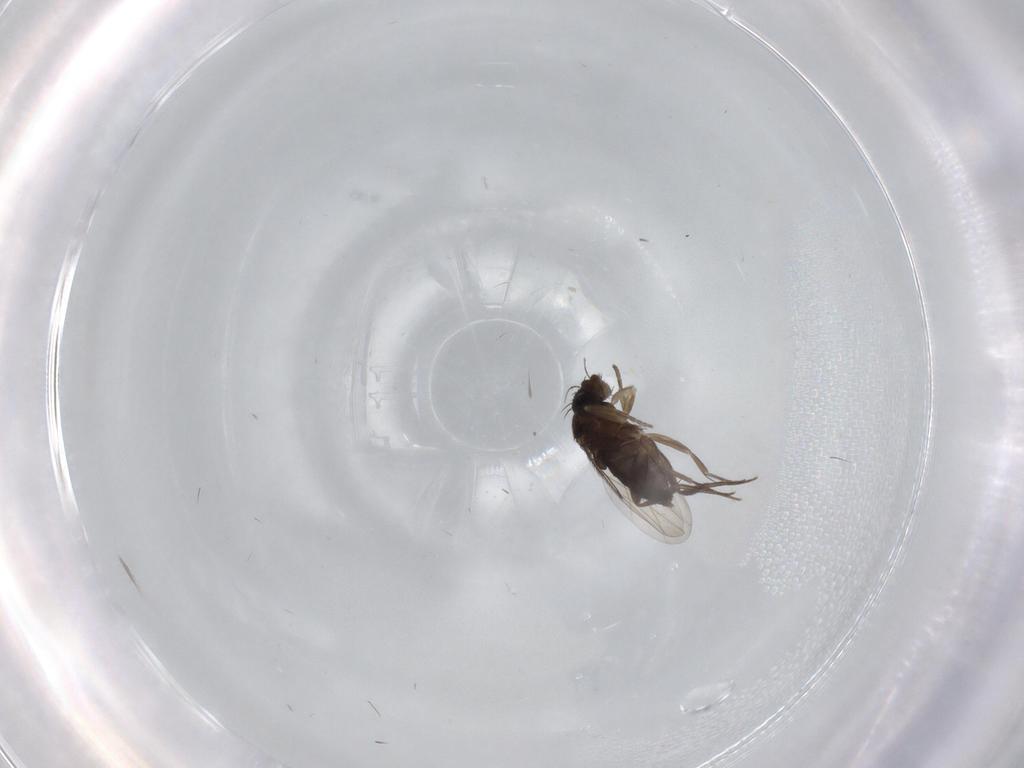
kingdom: Animalia
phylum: Arthropoda
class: Insecta
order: Diptera
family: Phoridae
